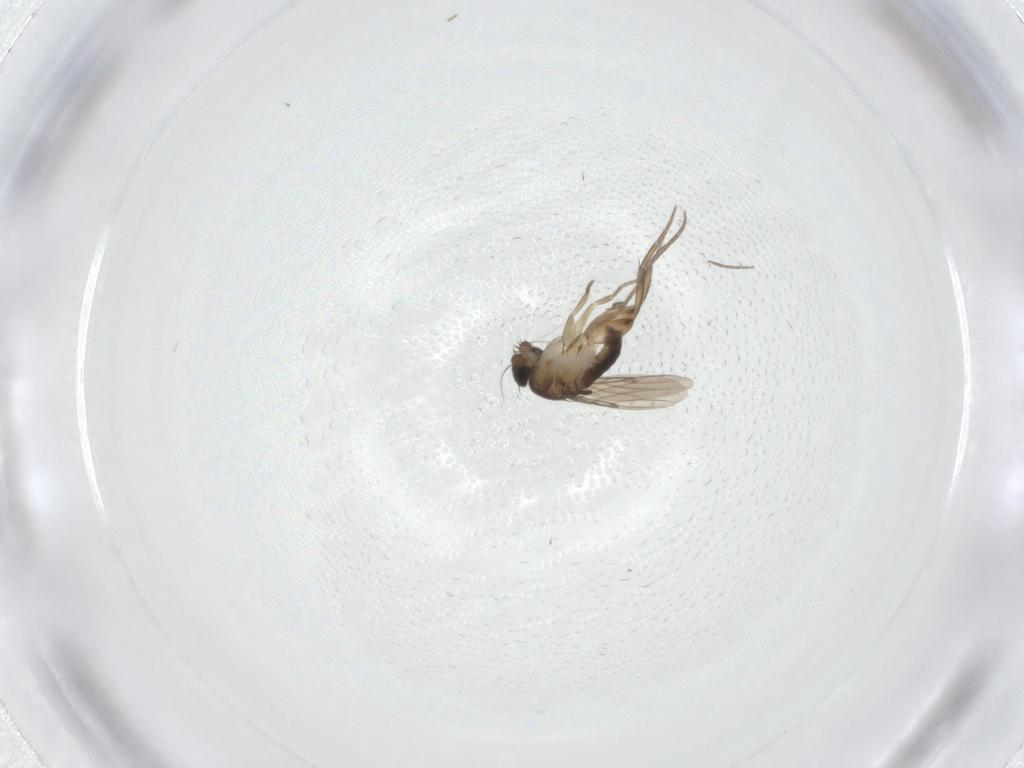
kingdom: Animalia
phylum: Arthropoda
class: Insecta
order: Diptera
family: Phoridae
